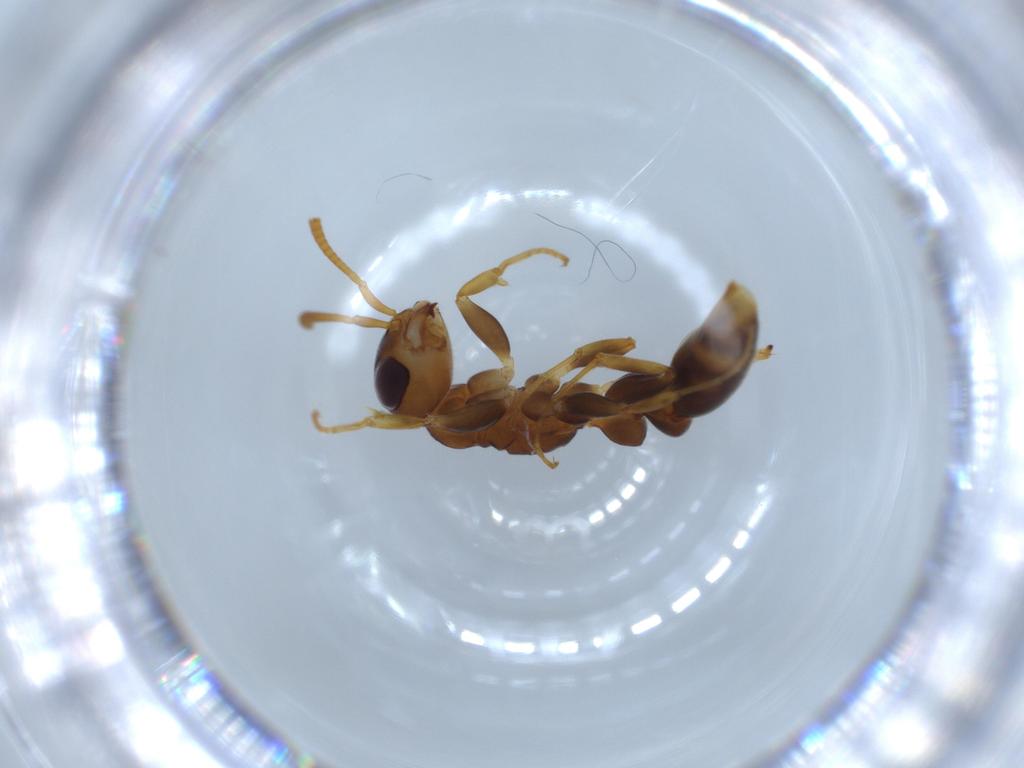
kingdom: Animalia
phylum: Arthropoda
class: Insecta
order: Hymenoptera
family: Formicidae
